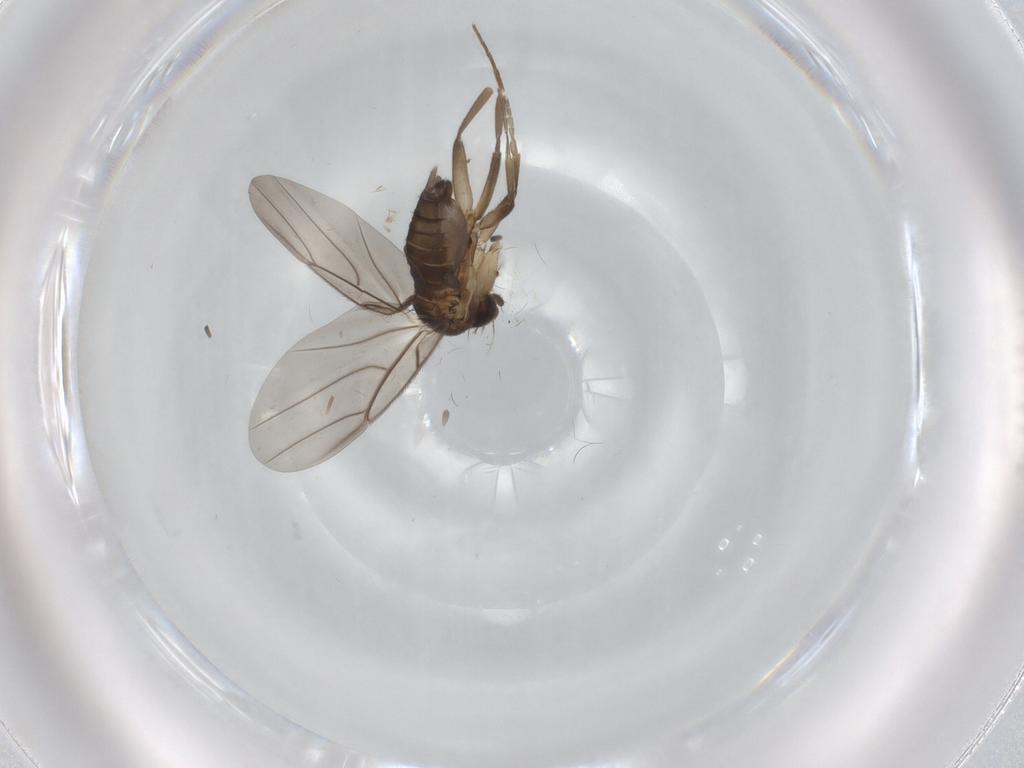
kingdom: Animalia
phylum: Arthropoda
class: Insecta
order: Diptera
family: Phoridae
